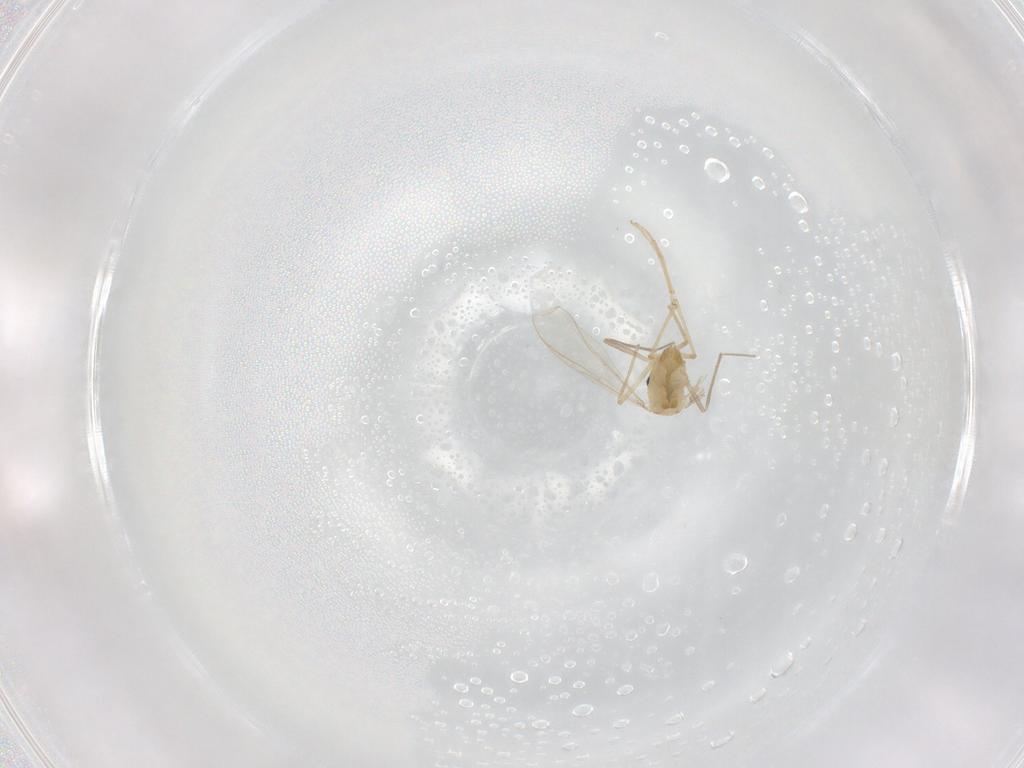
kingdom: Animalia
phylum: Arthropoda
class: Insecta
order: Diptera
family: Chironomidae
